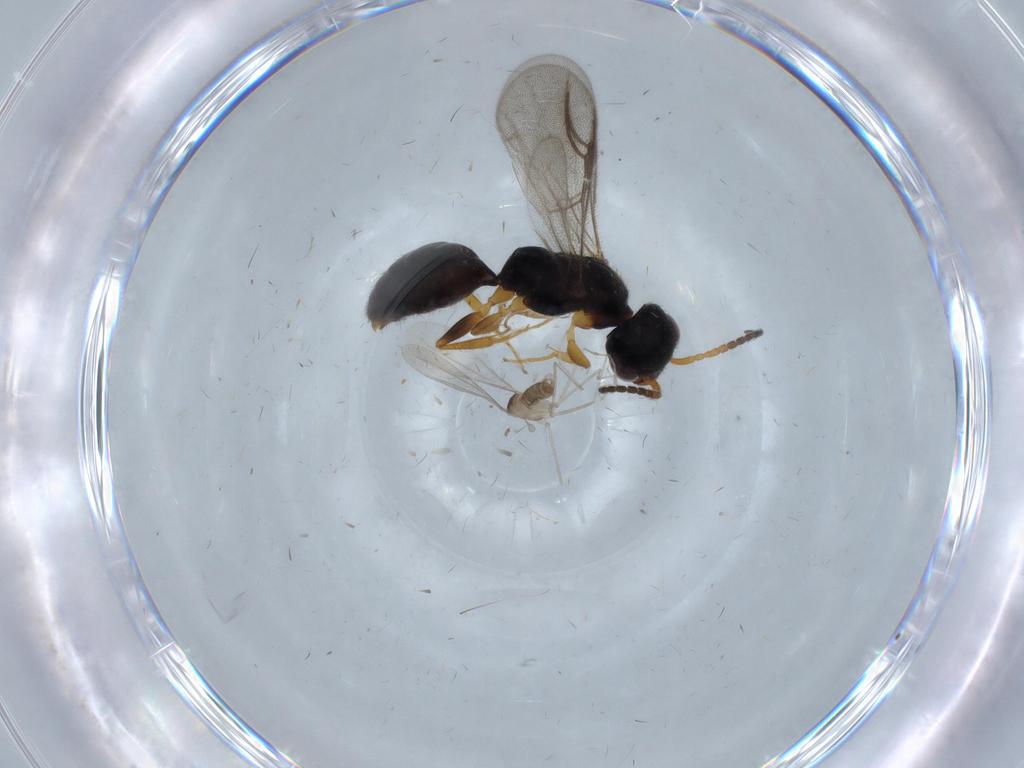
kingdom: Animalia
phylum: Arthropoda
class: Insecta
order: Diptera
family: Cecidomyiidae
